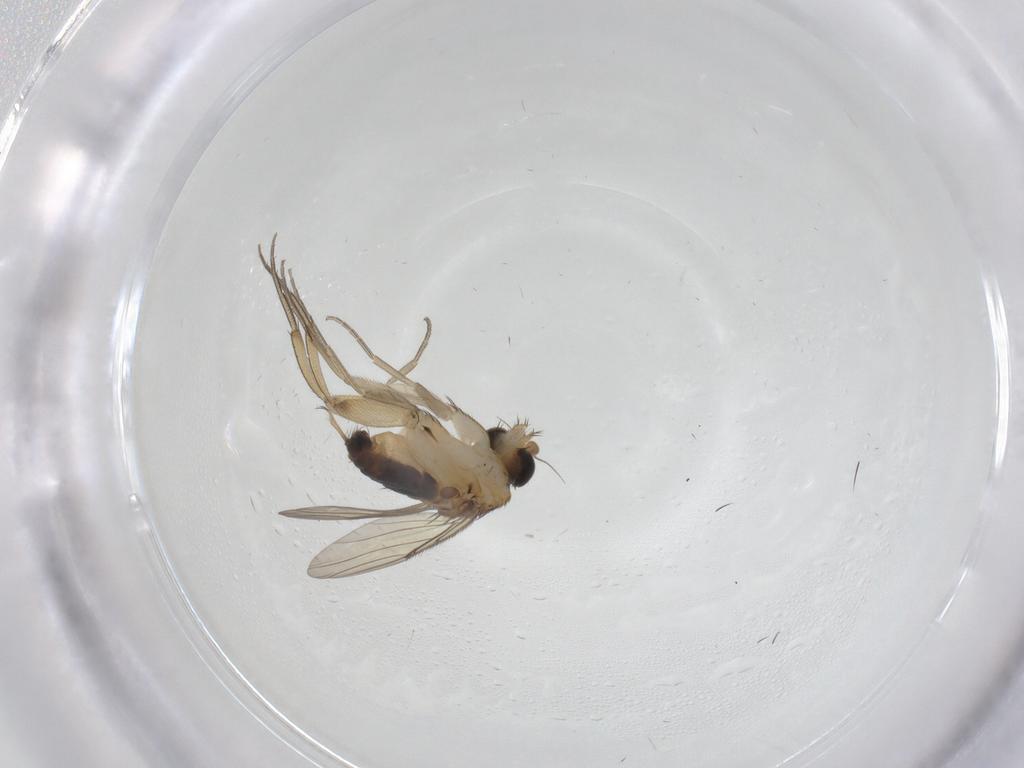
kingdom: Animalia
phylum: Arthropoda
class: Insecta
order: Diptera
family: Phoridae
